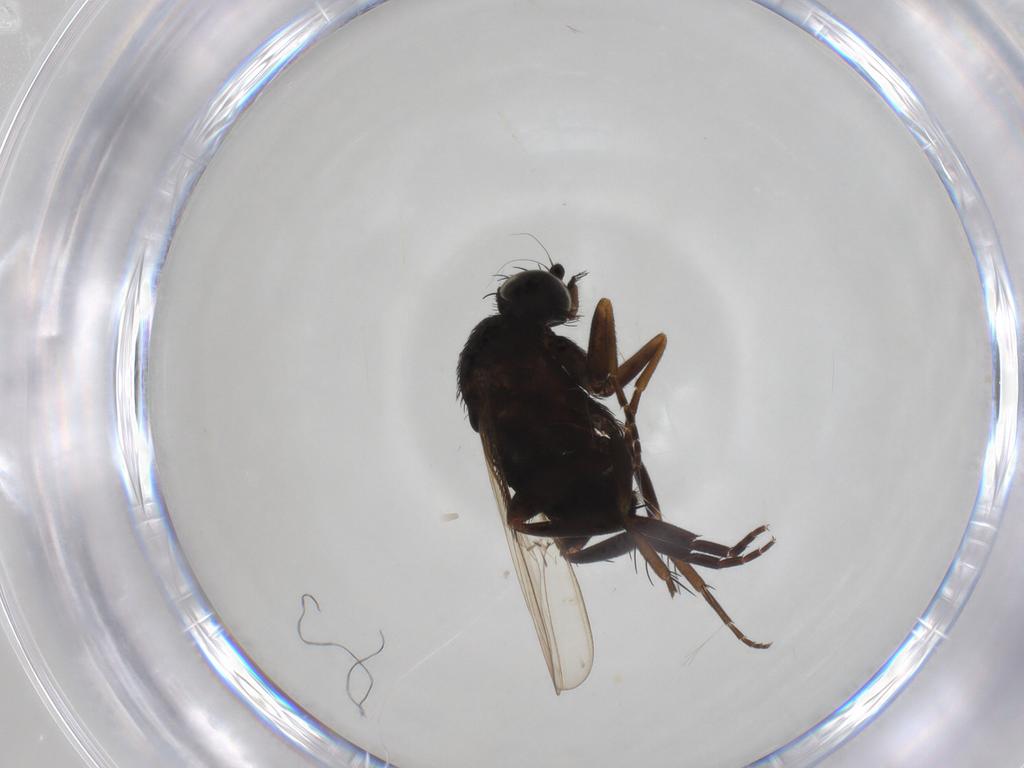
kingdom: Animalia
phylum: Arthropoda
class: Insecta
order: Diptera
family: Phoridae
